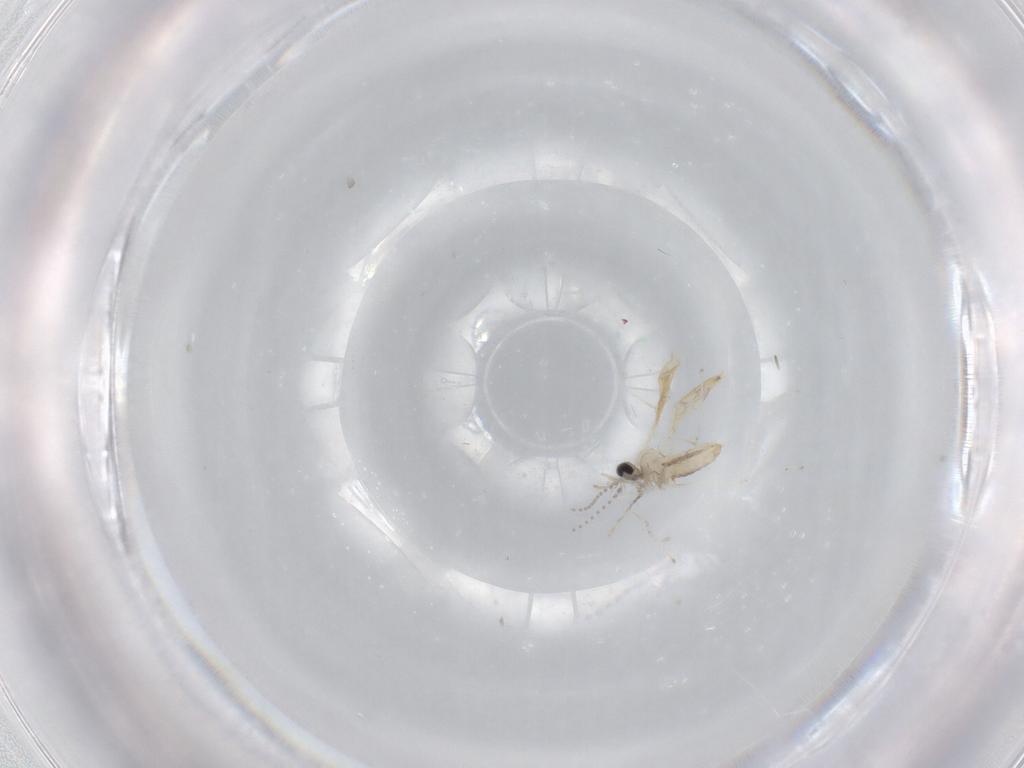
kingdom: Animalia
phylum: Arthropoda
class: Insecta
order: Diptera
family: Cecidomyiidae
